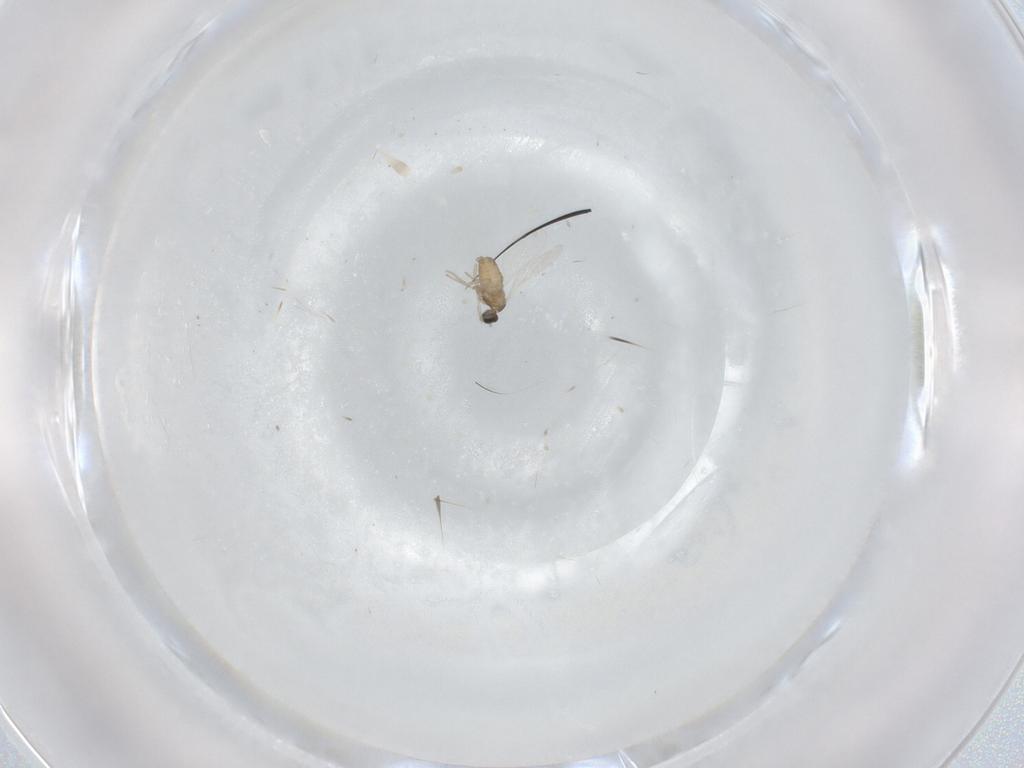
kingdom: Animalia
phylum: Arthropoda
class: Insecta
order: Diptera
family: Cecidomyiidae
